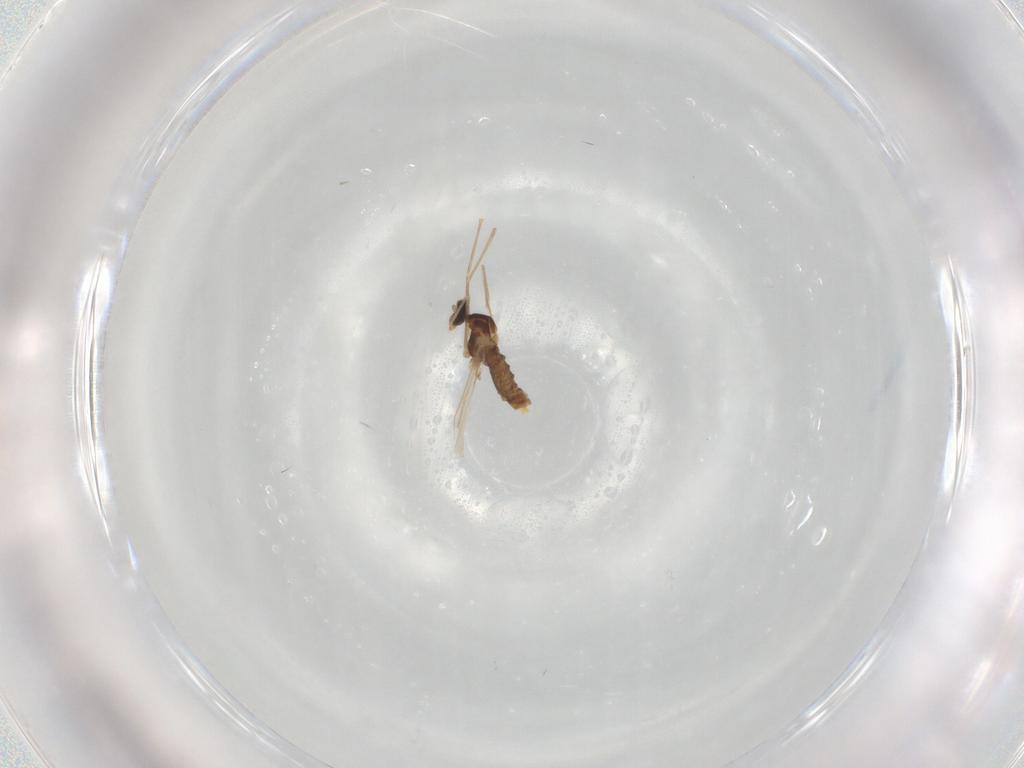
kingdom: Animalia
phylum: Arthropoda
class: Insecta
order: Diptera
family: Cecidomyiidae
